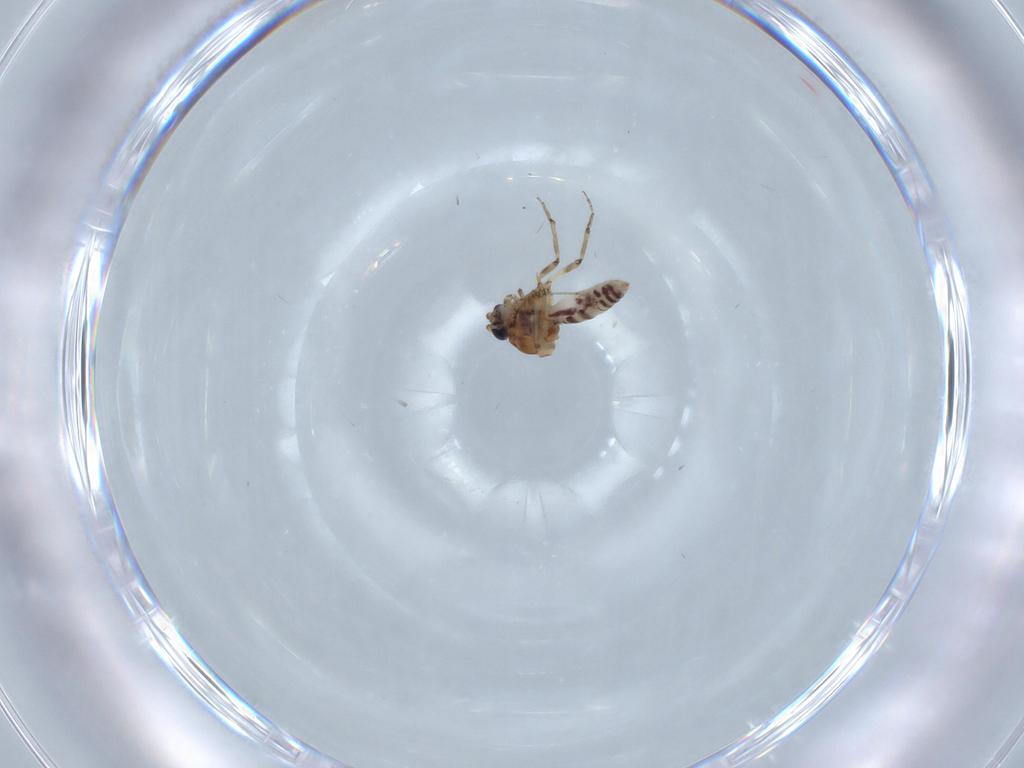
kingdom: Animalia
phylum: Arthropoda
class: Insecta
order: Diptera
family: Ceratopogonidae
